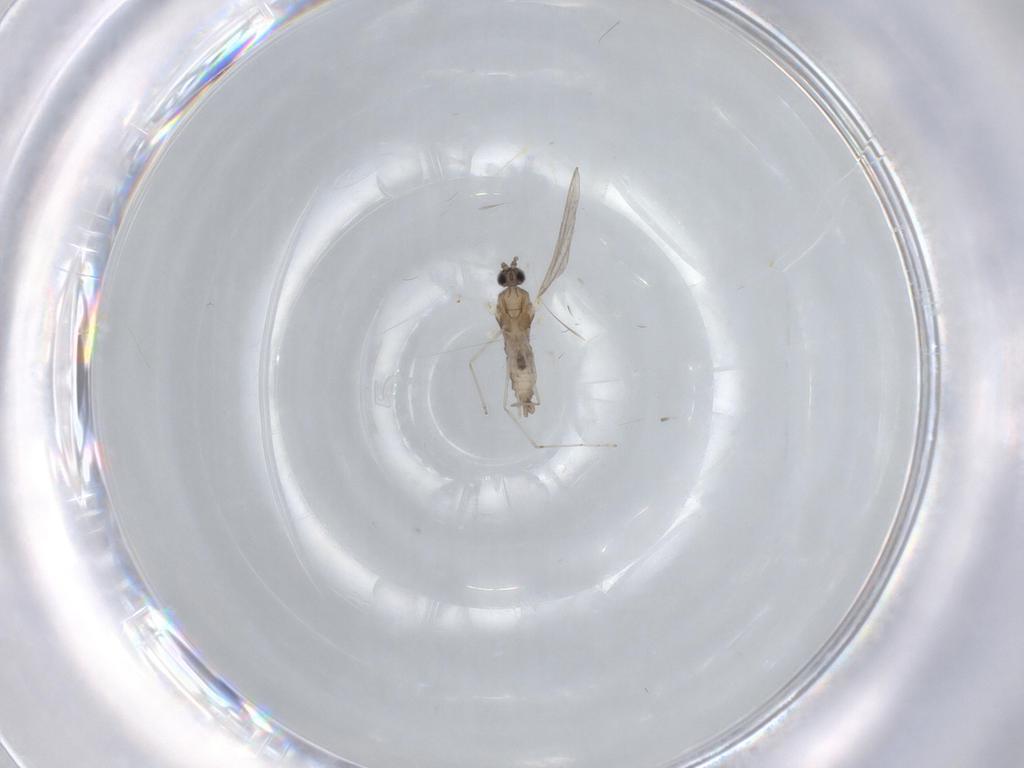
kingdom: Animalia
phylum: Arthropoda
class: Insecta
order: Diptera
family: Cecidomyiidae
